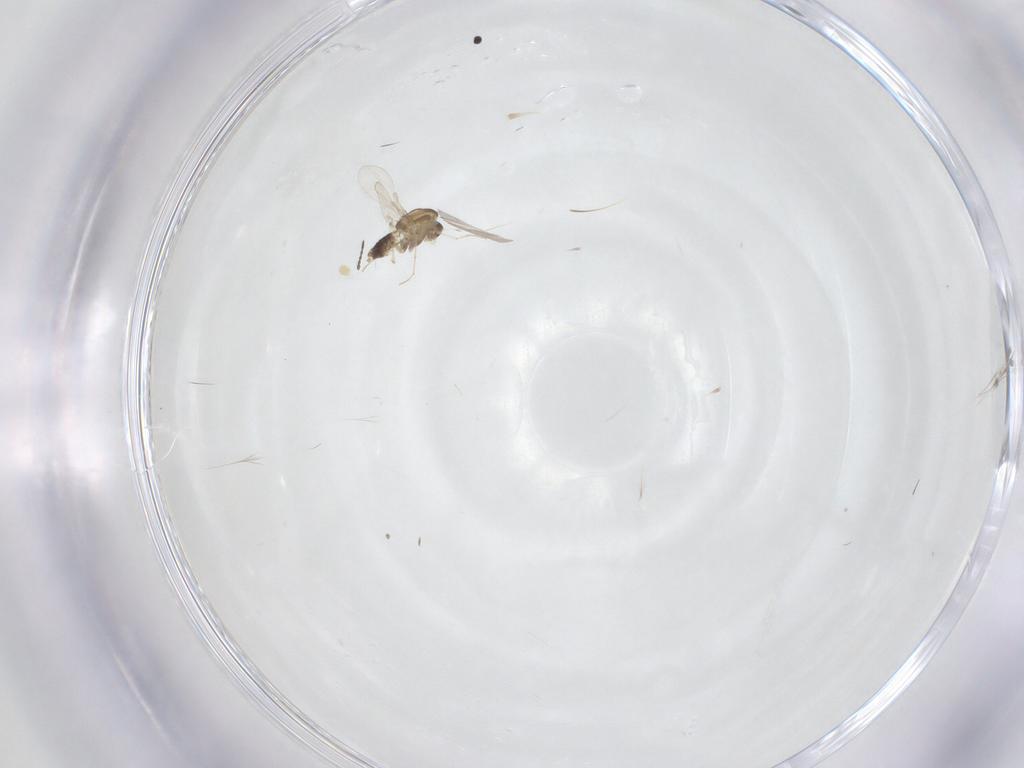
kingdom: Animalia
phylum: Arthropoda
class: Insecta
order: Diptera
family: Chironomidae
